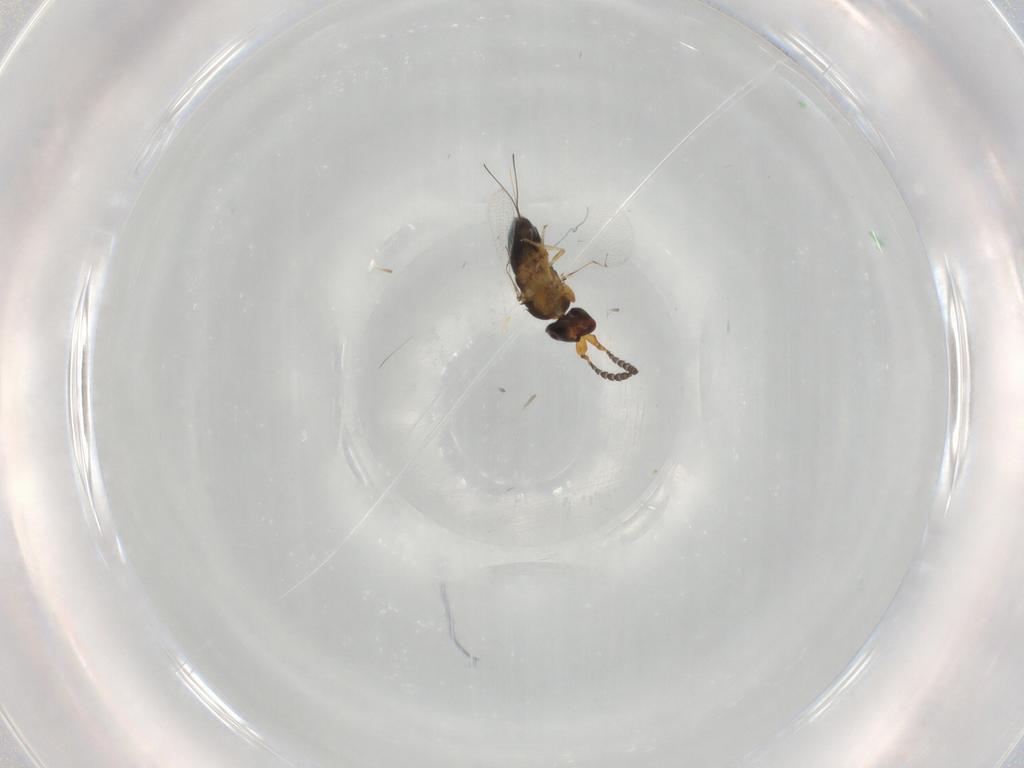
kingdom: Animalia
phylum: Arthropoda
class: Insecta
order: Hymenoptera
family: Agaonidae
